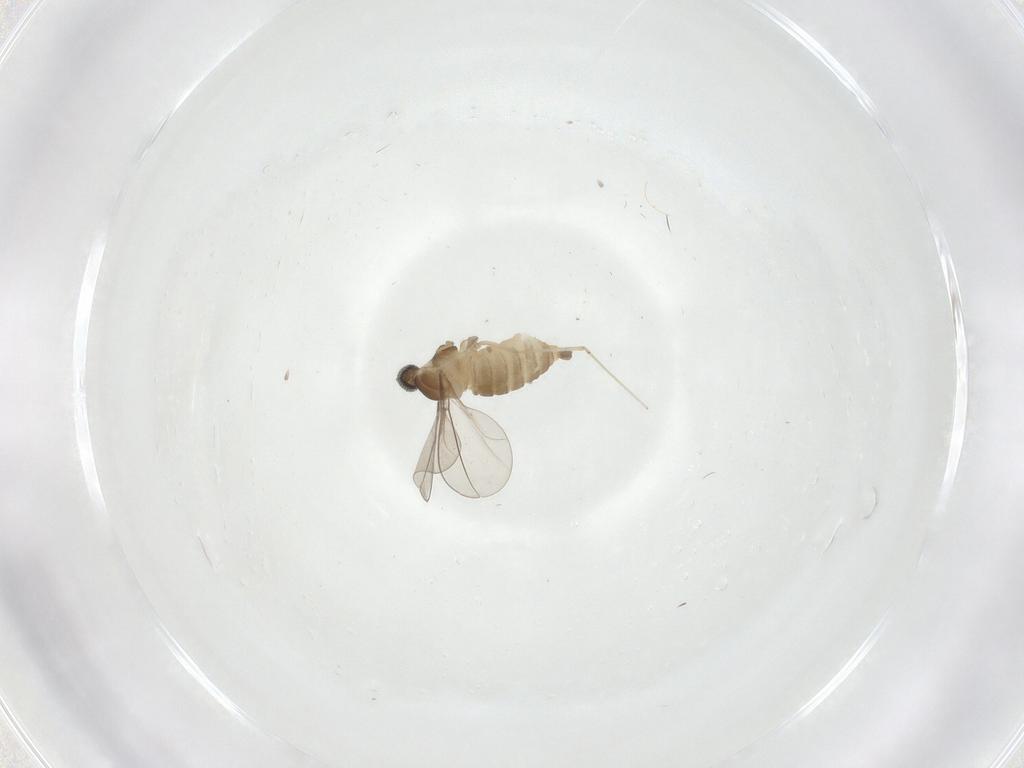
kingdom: Animalia
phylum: Arthropoda
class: Insecta
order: Diptera
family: Cecidomyiidae
